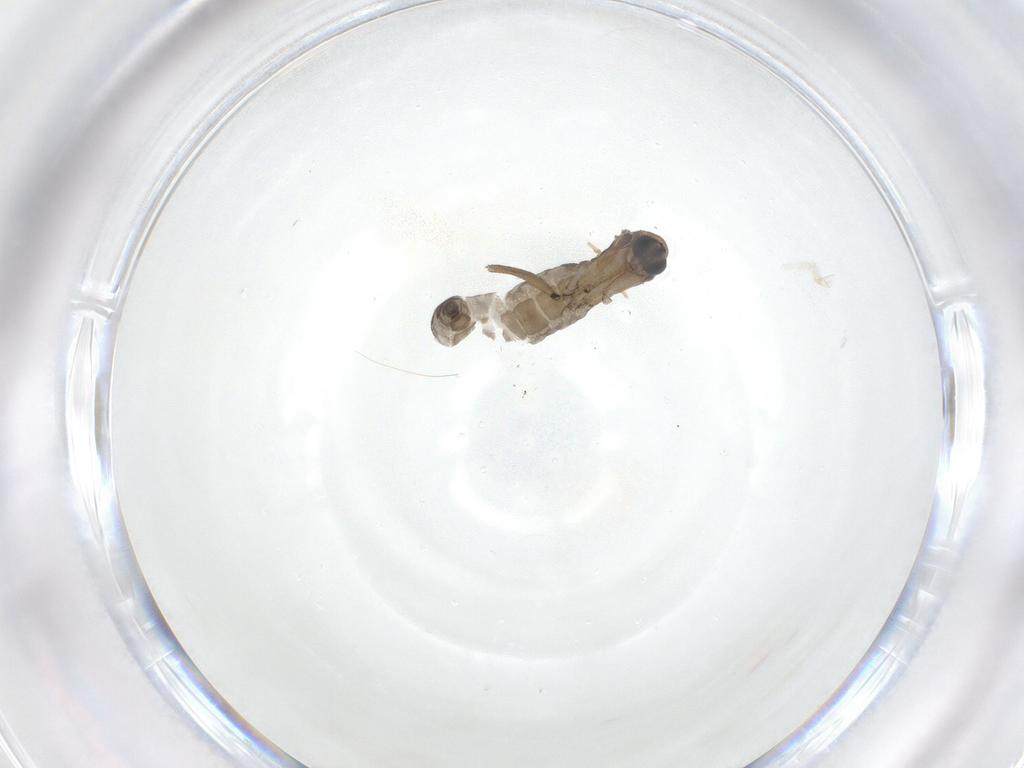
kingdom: Animalia
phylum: Arthropoda
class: Insecta
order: Diptera
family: Sciaridae
